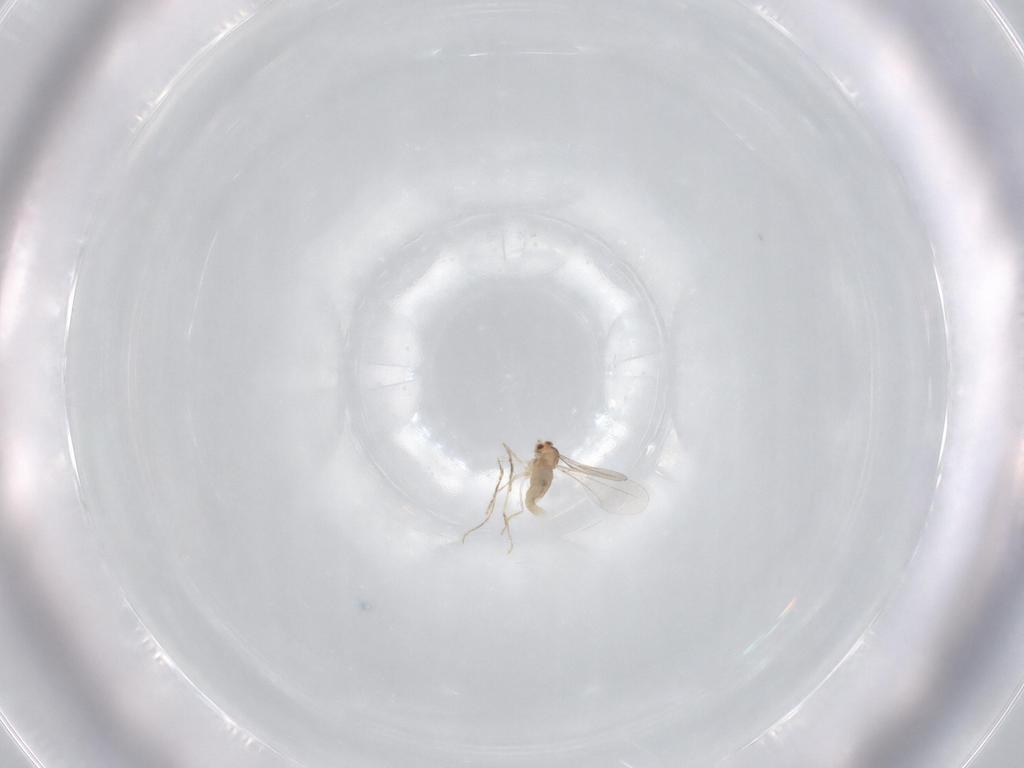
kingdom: Animalia
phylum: Arthropoda
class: Insecta
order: Diptera
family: Cecidomyiidae
